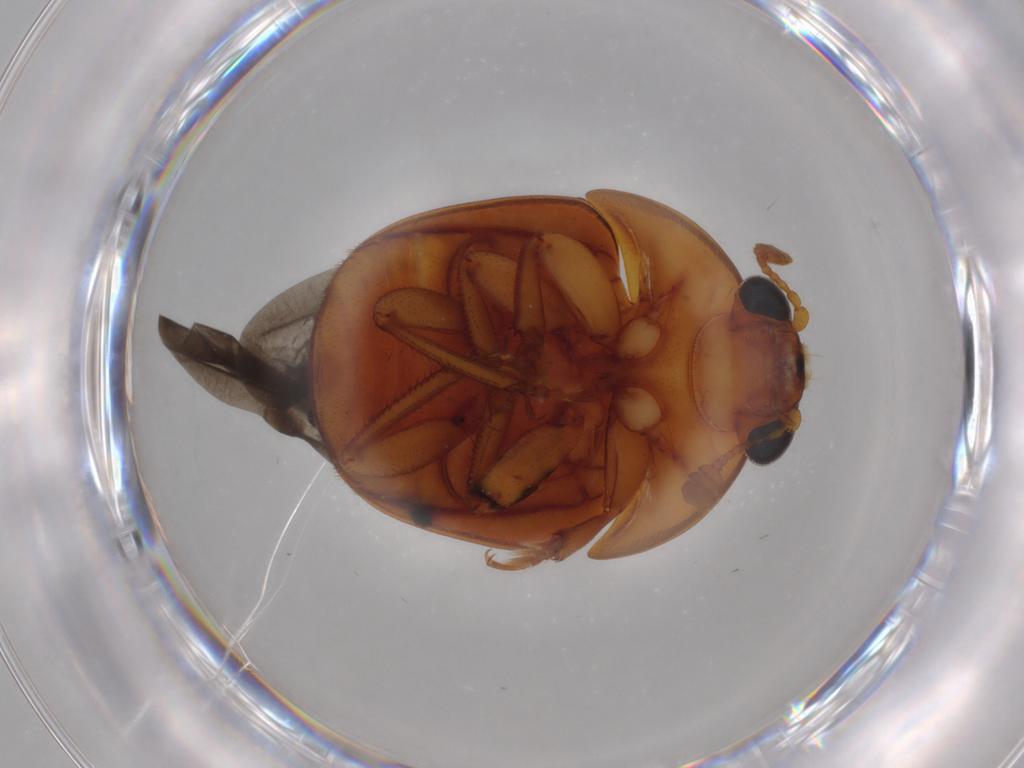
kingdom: Animalia
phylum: Arthropoda
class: Insecta
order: Coleoptera
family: Nitidulidae
